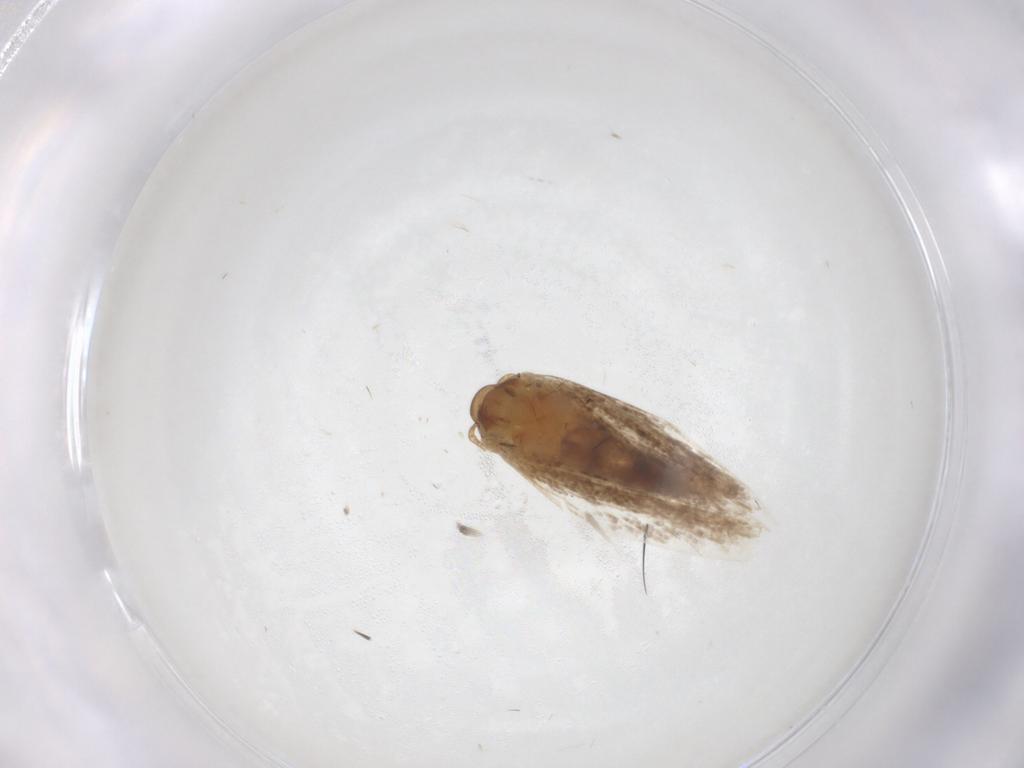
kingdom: Animalia
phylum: Arthropoda
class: Insecta
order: Lepidoptera
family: Gelechiidae
